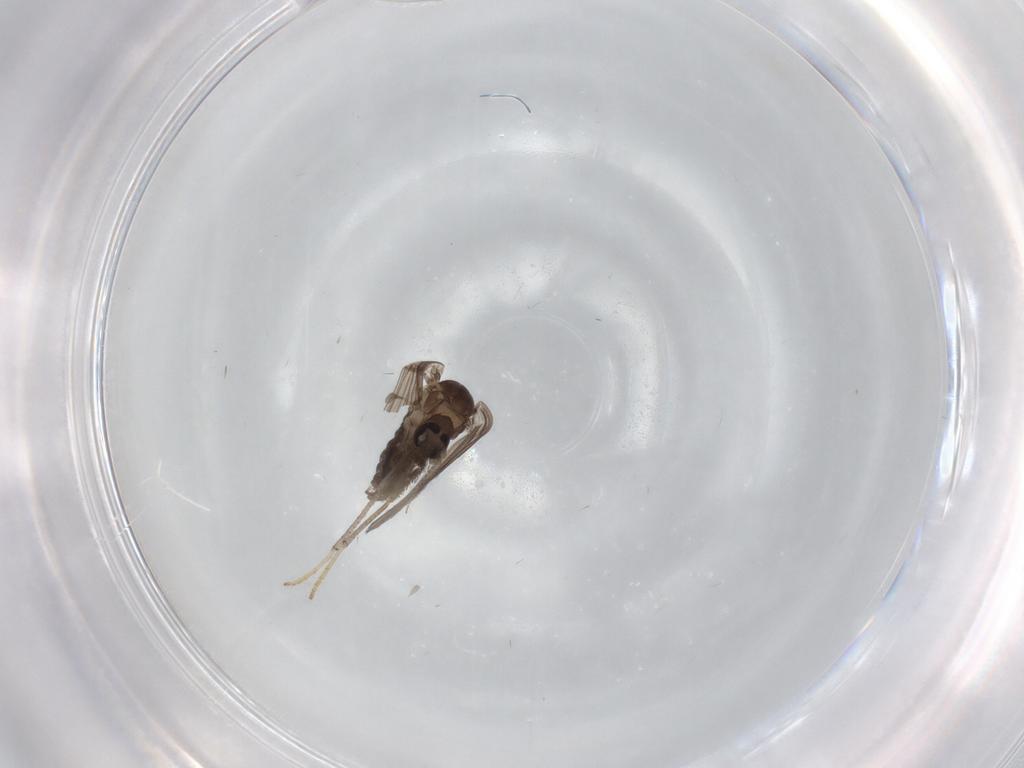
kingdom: Animalia
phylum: Arthropoda
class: Insecta
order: Diptera
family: Psychodidae
